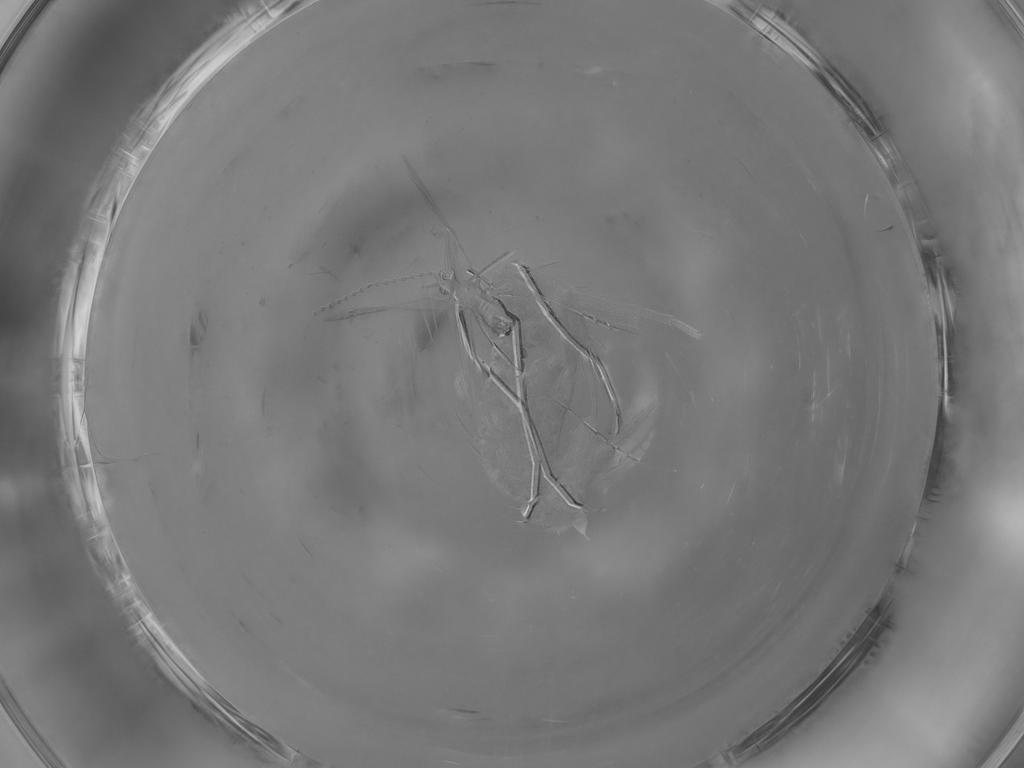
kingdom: Animalia
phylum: Arthropoda
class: Insecta
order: Diptera
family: Cecidomyiidae
